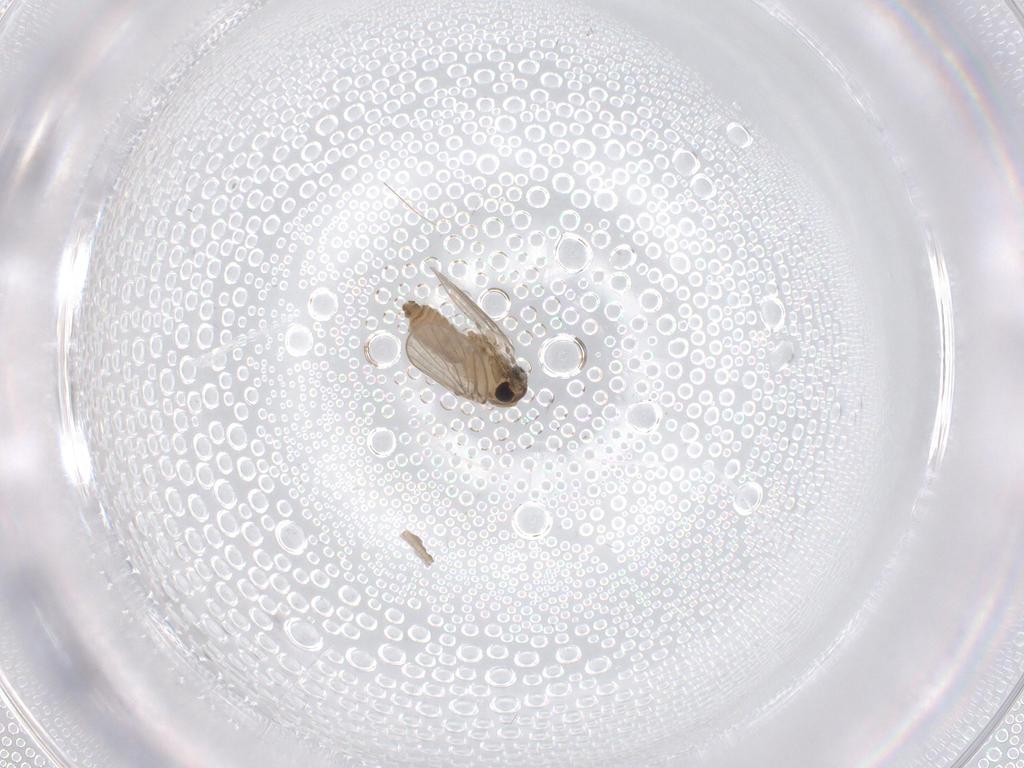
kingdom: Animalia
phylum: Arthropoda
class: Insecta
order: Diptera
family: Limoniidae
